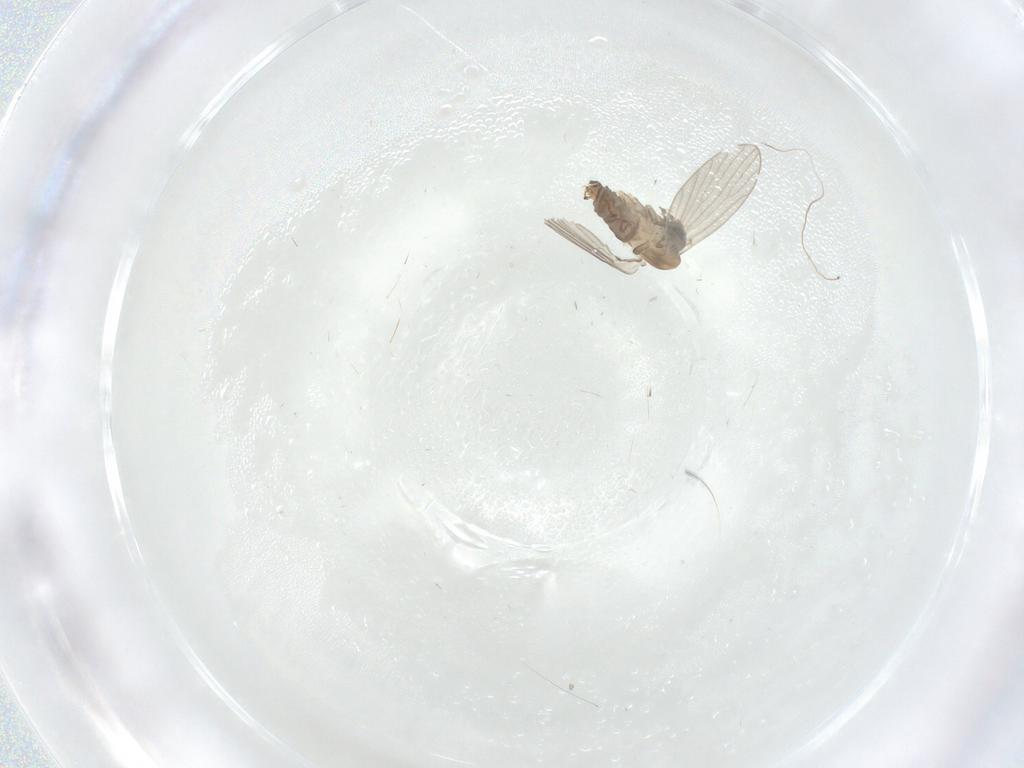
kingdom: Animalia
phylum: Arthropoda
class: Insecta
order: Diptera
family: Psychodidae
